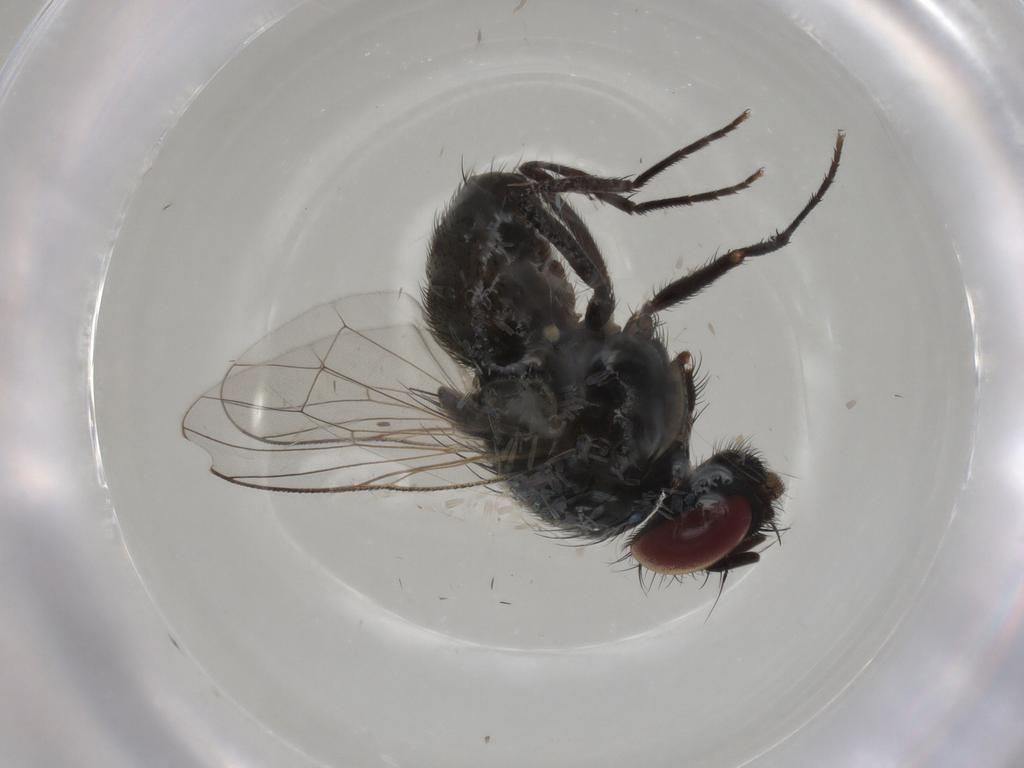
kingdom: Animalia
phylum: Arthropoda
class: Insecta
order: Diptera
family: Muscidae
